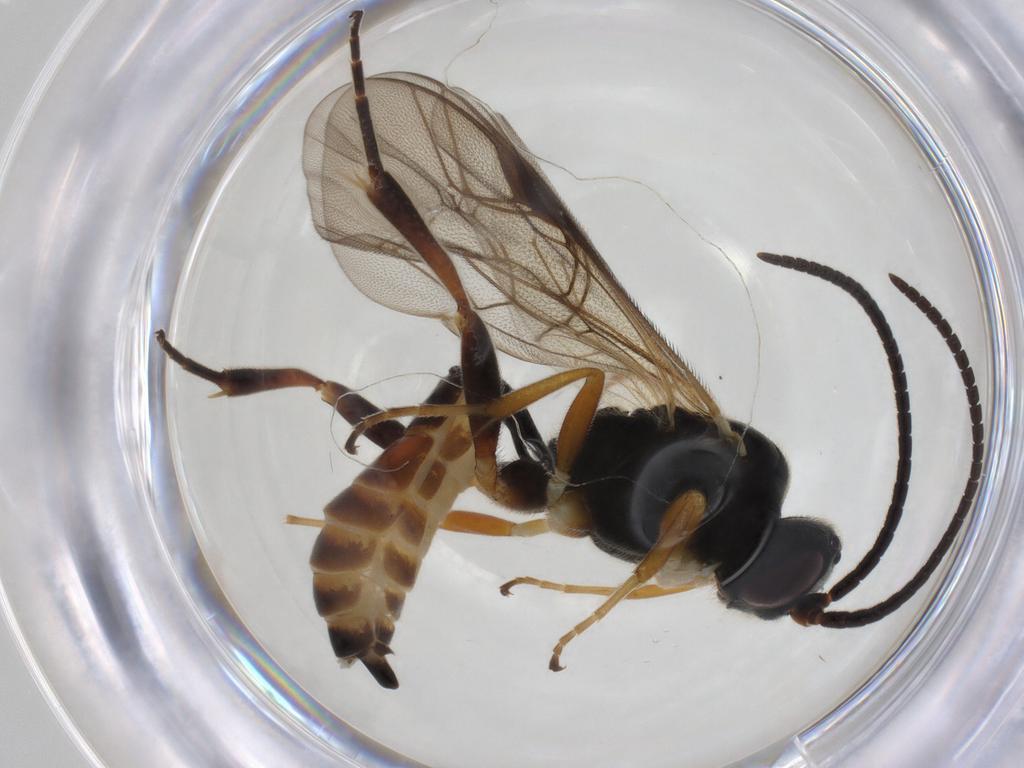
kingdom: Animalia
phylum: Arthropoda
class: Insecta
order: Hymenoptera
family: Ichneumonidae
